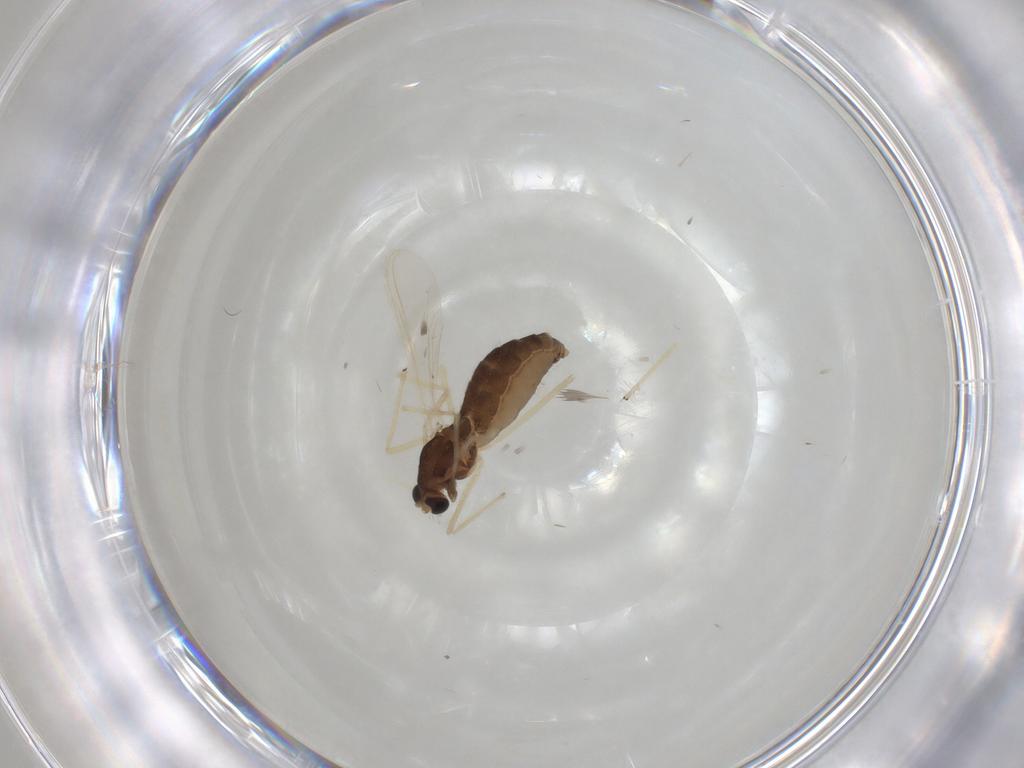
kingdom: Animalia
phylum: Arthropoda
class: Insecta
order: Diptera
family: Chironomidae
